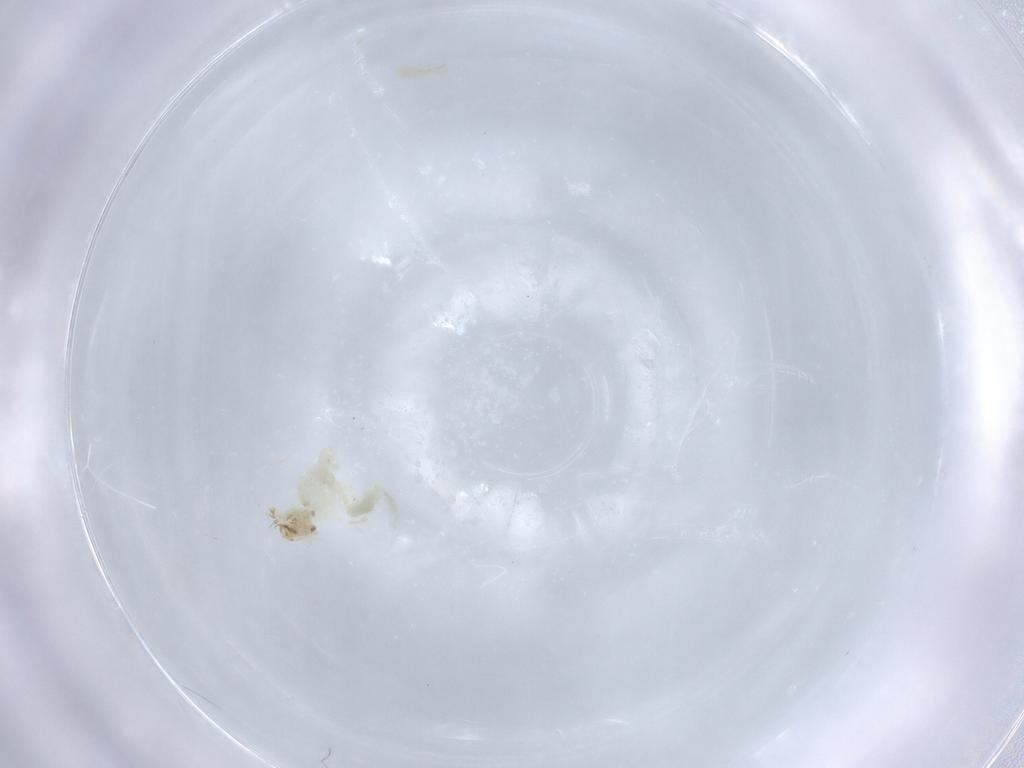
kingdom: Animalia
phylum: Arthropoda
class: Insecta
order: Diptera
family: Chironomidae
